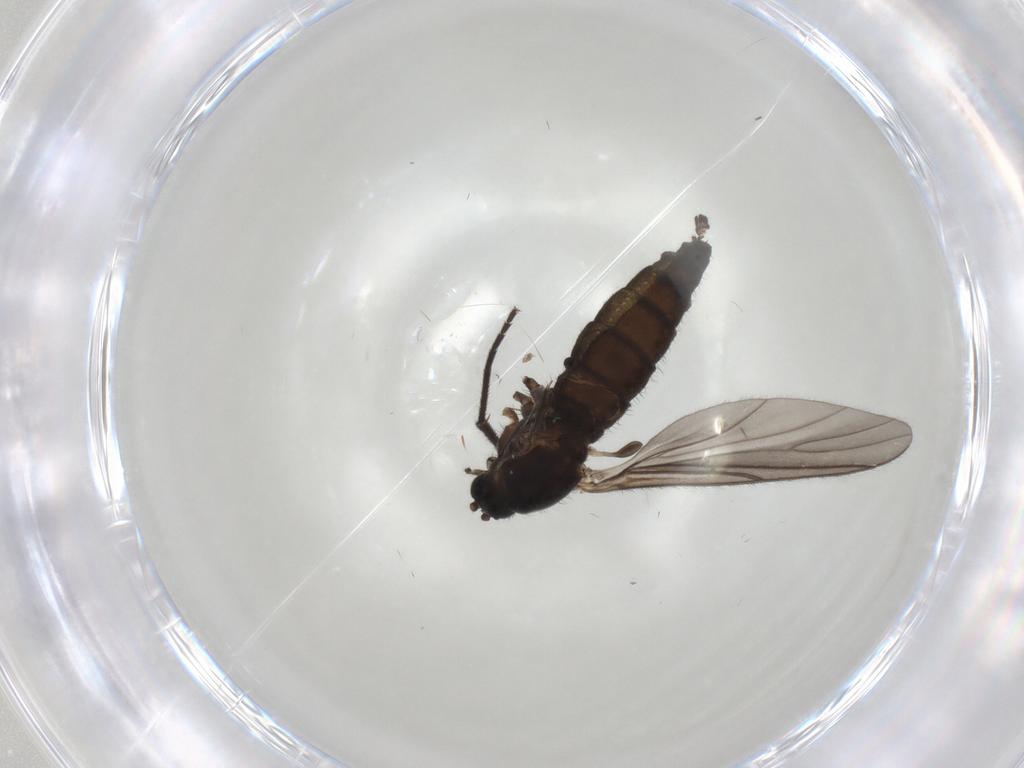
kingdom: Animalia
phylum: Arthropoda
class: Insecta
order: Diptera
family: Sciaridae
